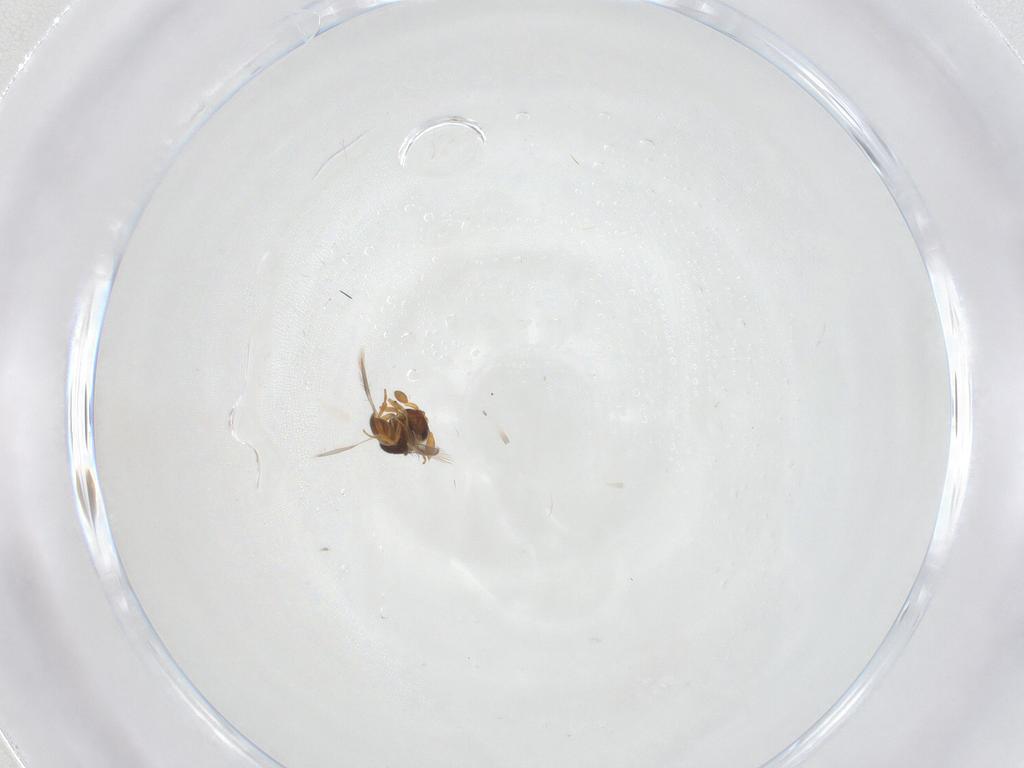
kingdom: Animalia
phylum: Arthropoda
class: Insecta
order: Hymenoptera
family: Scelionidae
